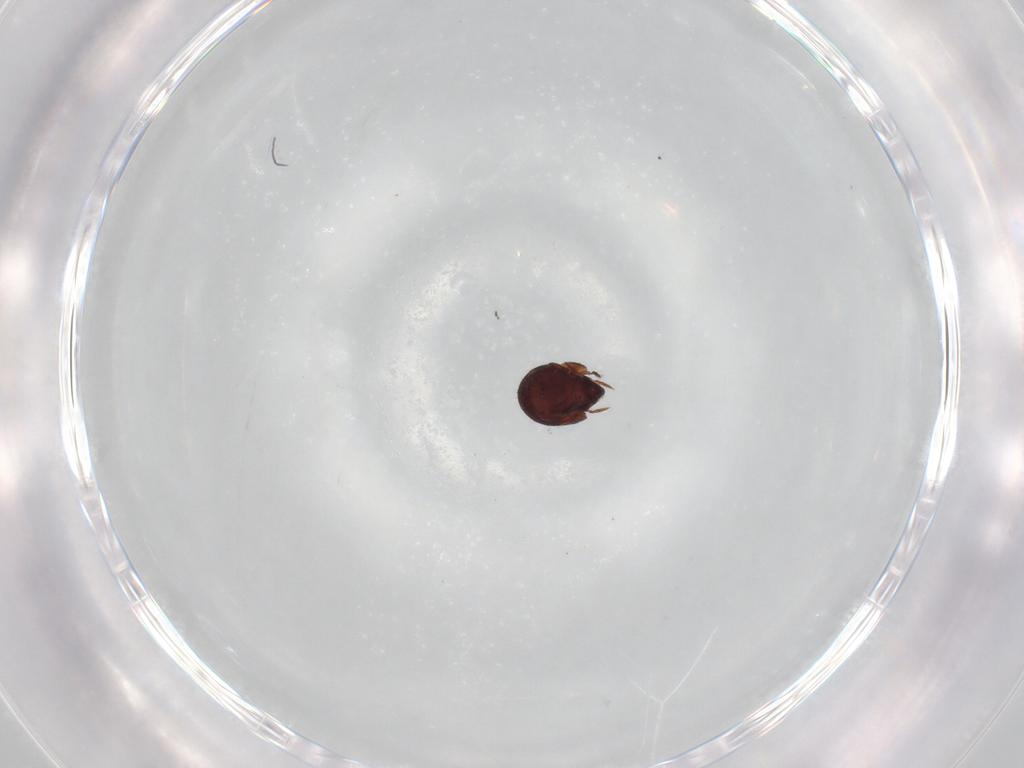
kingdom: Animalia
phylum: Arthropoda
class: Arachnida
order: Sarcoptiformes
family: Humerobatidae
